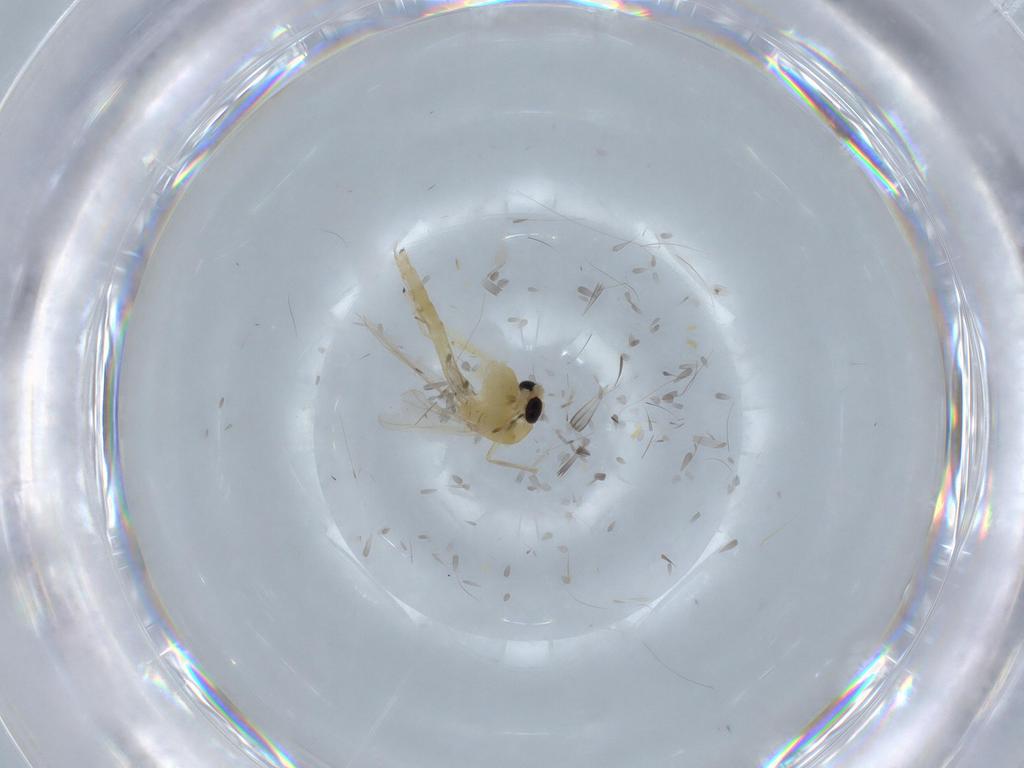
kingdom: Animalia
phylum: Arthropoda
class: Insecta
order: Diptera
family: Chironomidae
